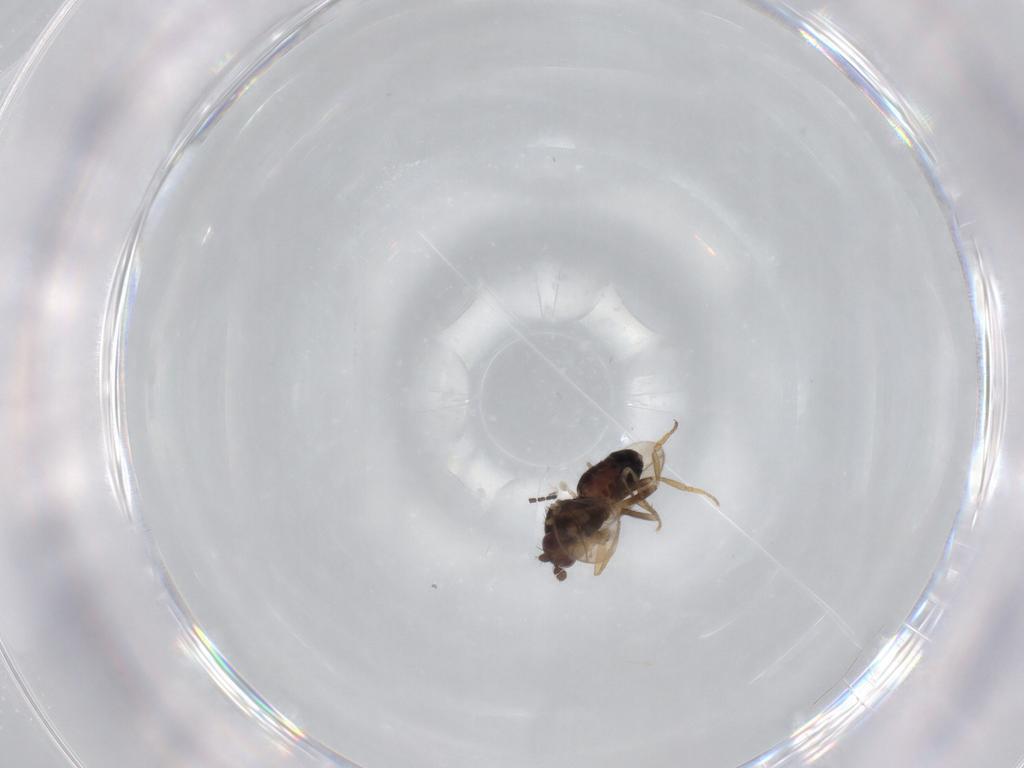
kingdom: Animalia
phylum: Arthropoda
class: Insecta
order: Diptera
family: Sphaeroceridae
